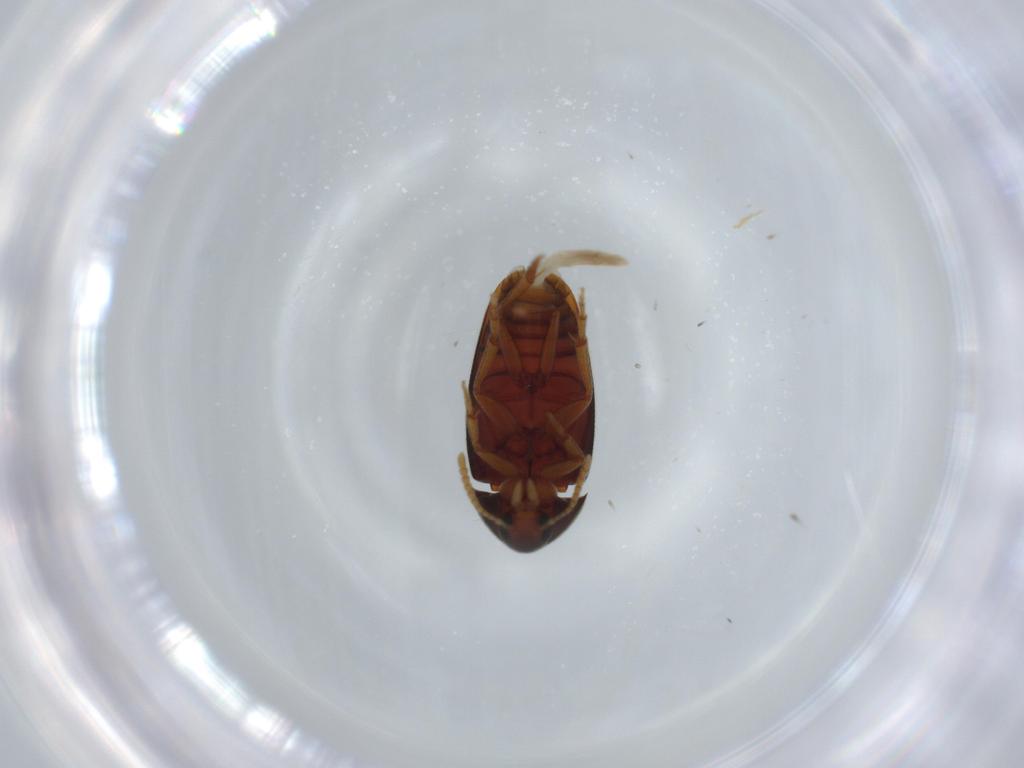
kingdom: Animalia
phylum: Arthropoda
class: Insecta
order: Coleoptera
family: Scraptiidae
